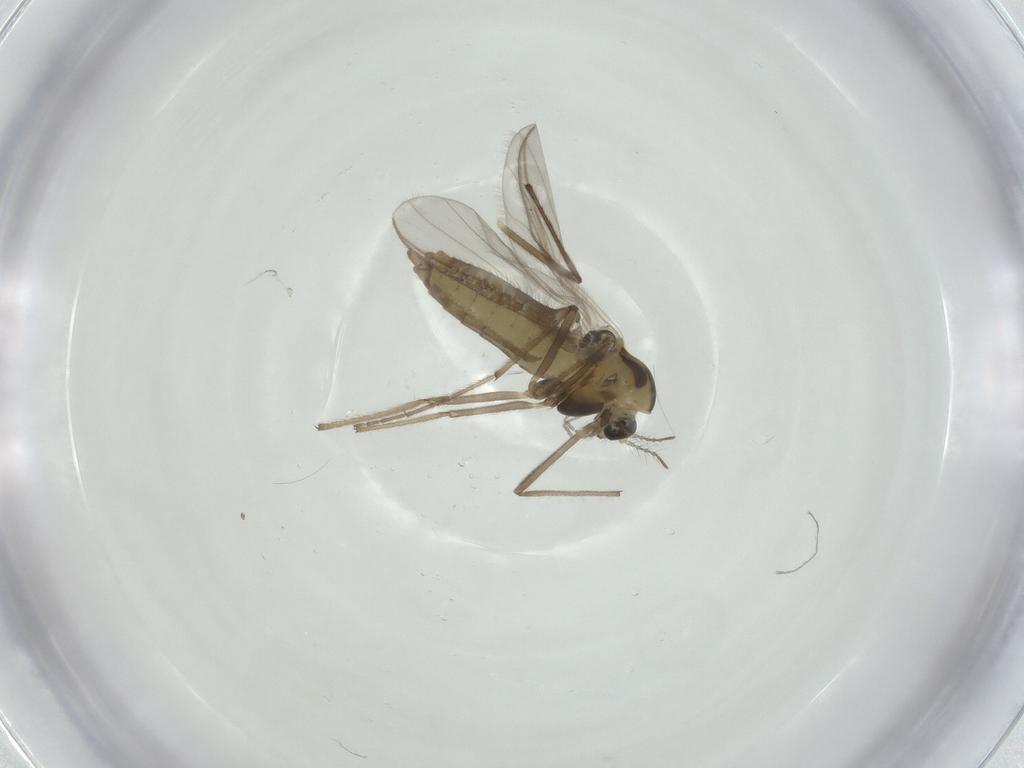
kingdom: Animalia
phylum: Arthropoda
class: Insecta
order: Diptera
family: Chironomidae
